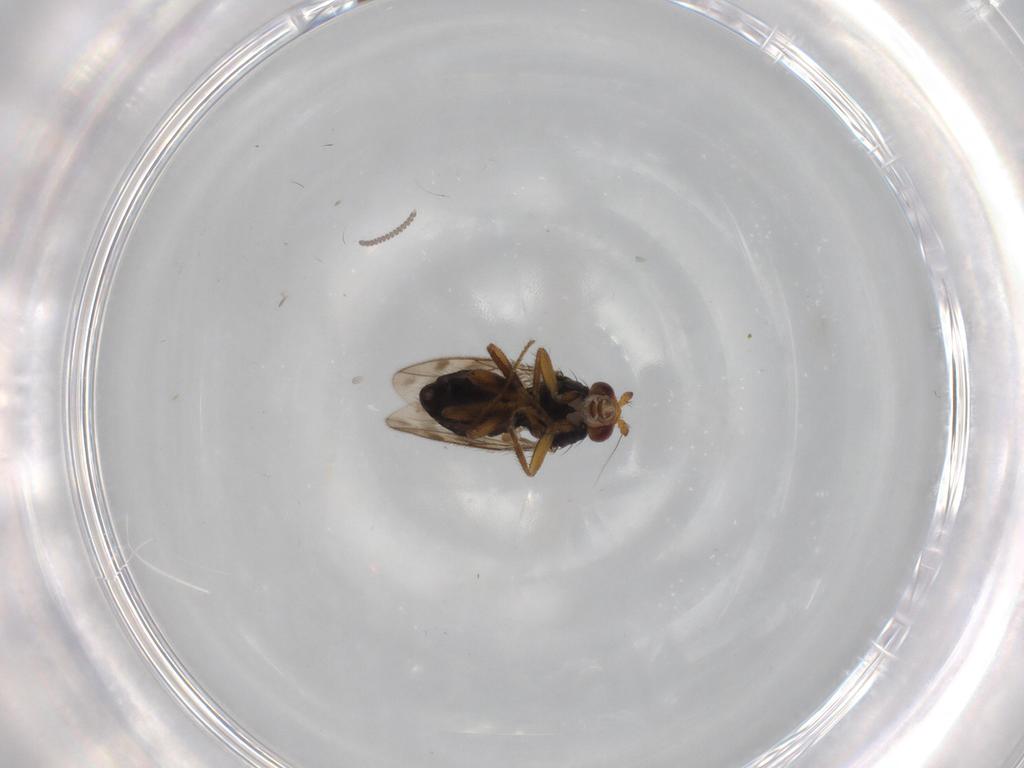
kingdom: Animalia
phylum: Arthropoda
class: Insecta
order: Diptera
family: Sphaeroceridae
